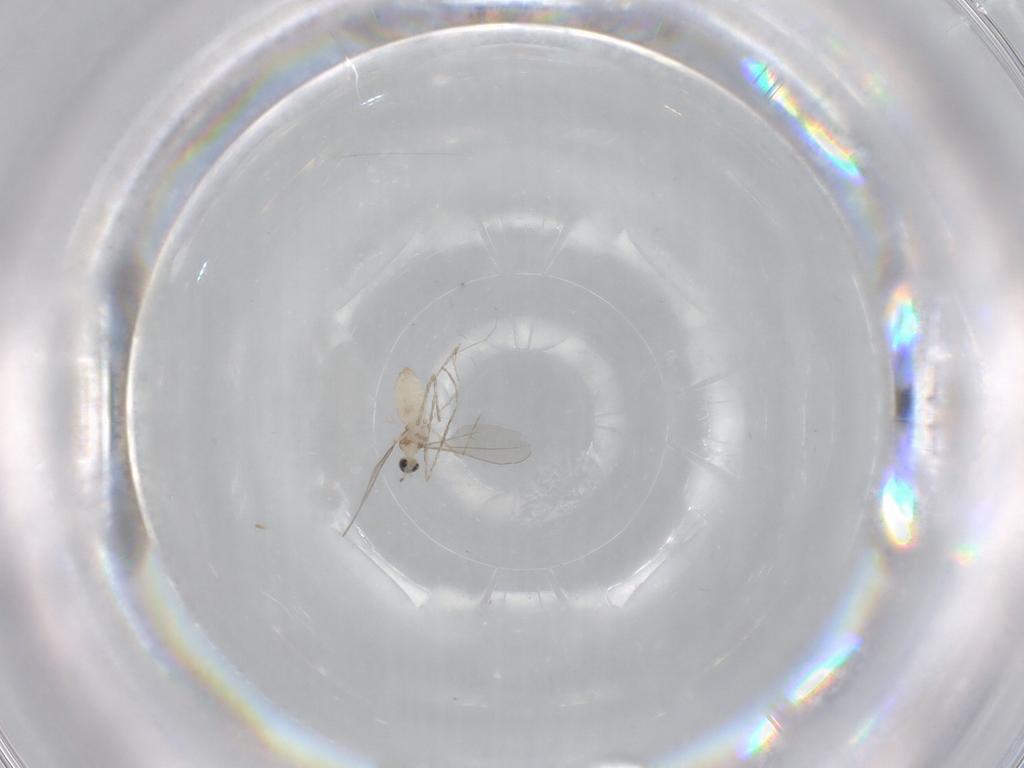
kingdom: Animalia
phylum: Arthropoda
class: Insecta
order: Diptera
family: Cecidomyiidae
